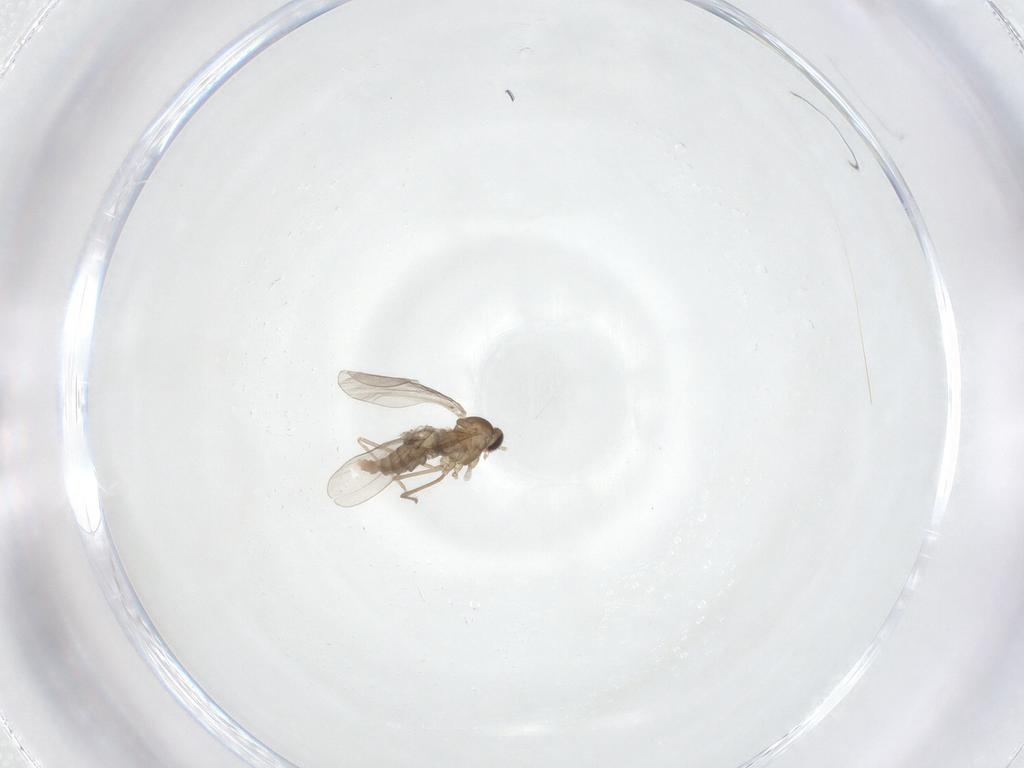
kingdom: Animalia
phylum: Arthropoda
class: Insecta
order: Diptera
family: Cecidomyiidae
